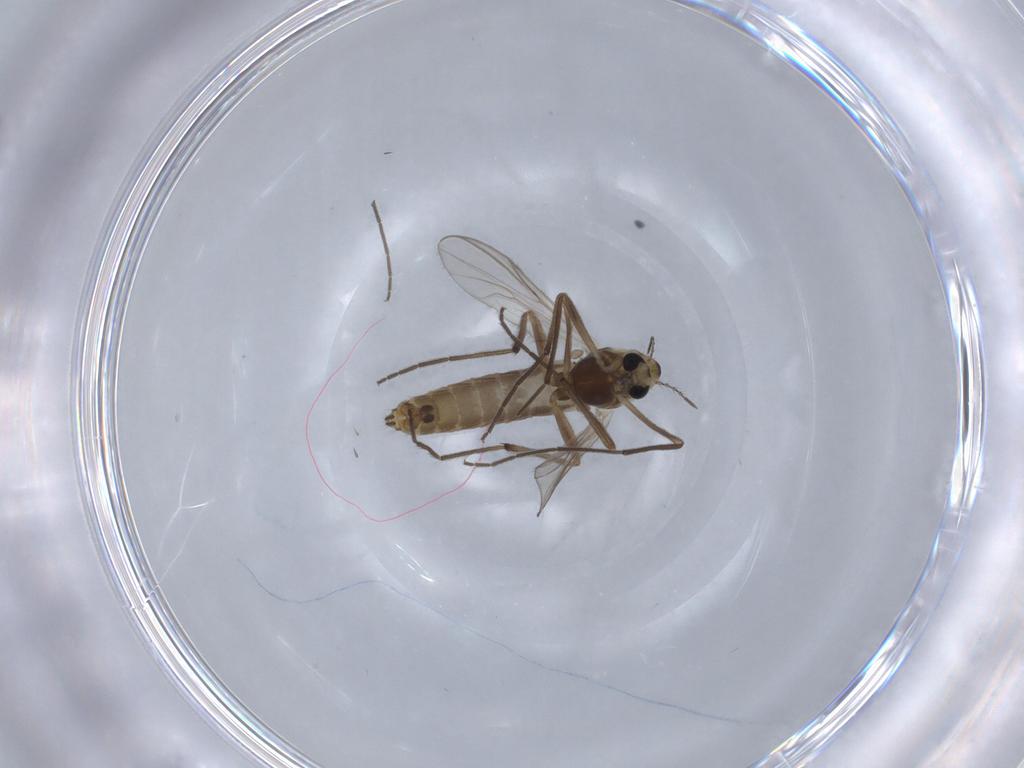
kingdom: Animalia
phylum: Arthropoda
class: Insecta
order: Diptera
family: Chironomidae
